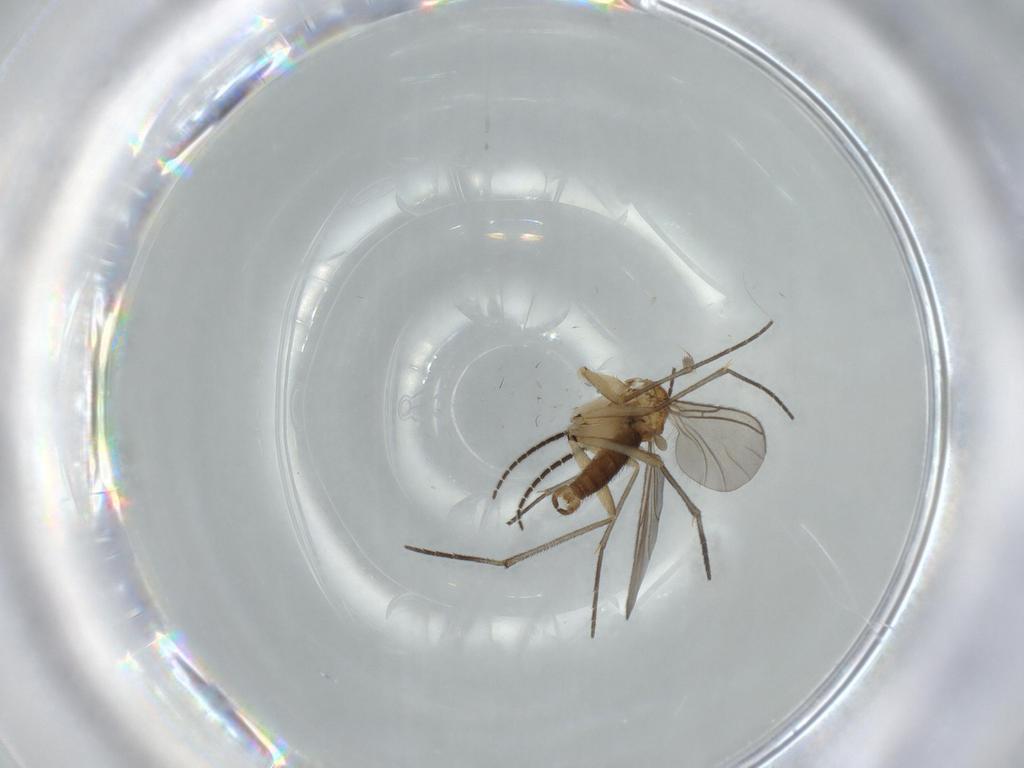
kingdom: Animalia
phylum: Arthropoda
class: Insecta
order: Diptera
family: Sciaridae
